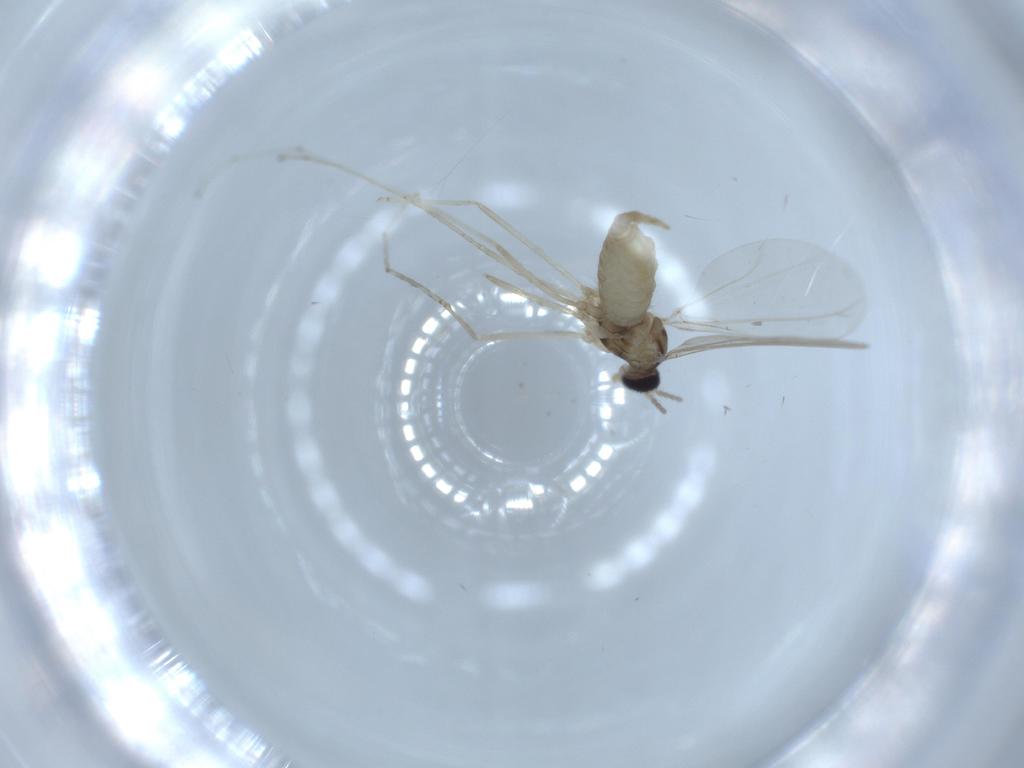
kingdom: Animalia
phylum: Arthropoda
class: Insecta
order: Diptera
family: Cecidomyiidae
